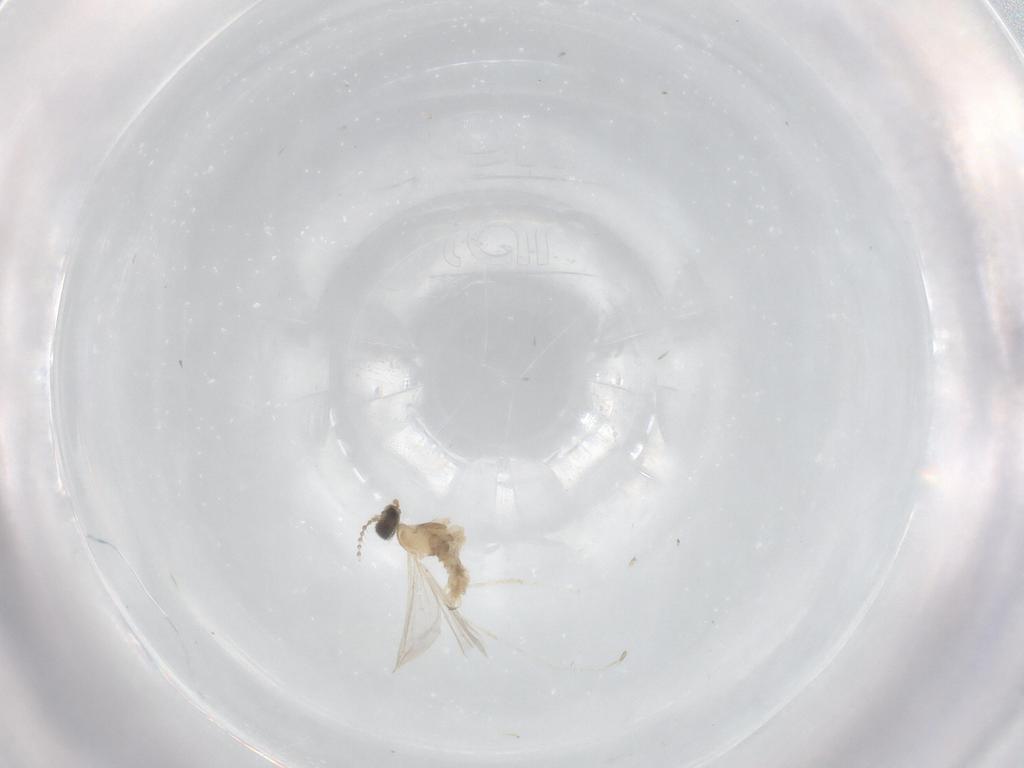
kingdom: Animalia
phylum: Arthropoda
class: Insecta
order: Diptera
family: Cecidomyiidae
